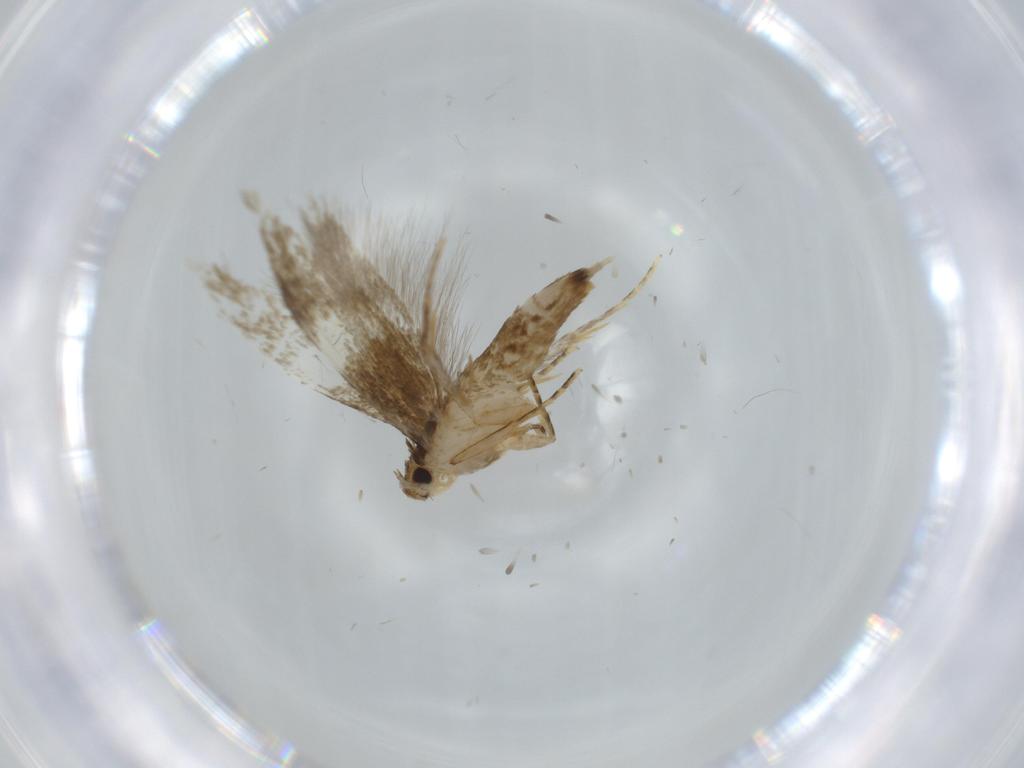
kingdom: Animalia
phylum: Arthropoda
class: Insecta
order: Lepidoptera
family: Tineidae
